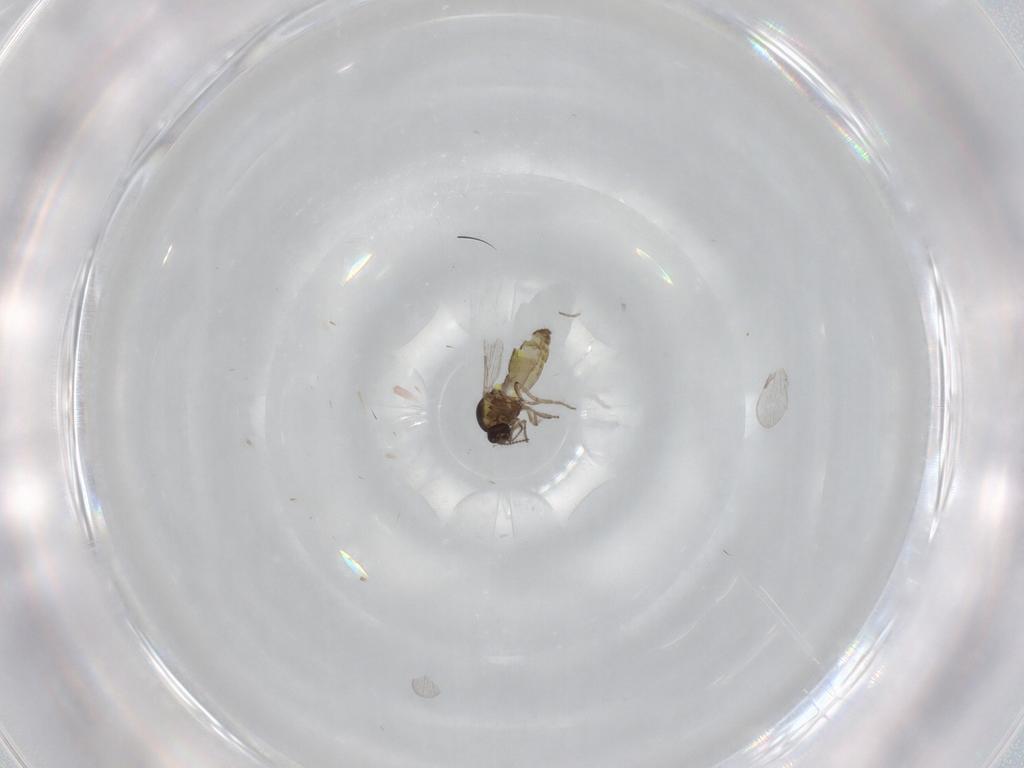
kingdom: Animalia
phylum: Arthropoda
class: Insecta
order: Diptera
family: Ceratopogonidae
